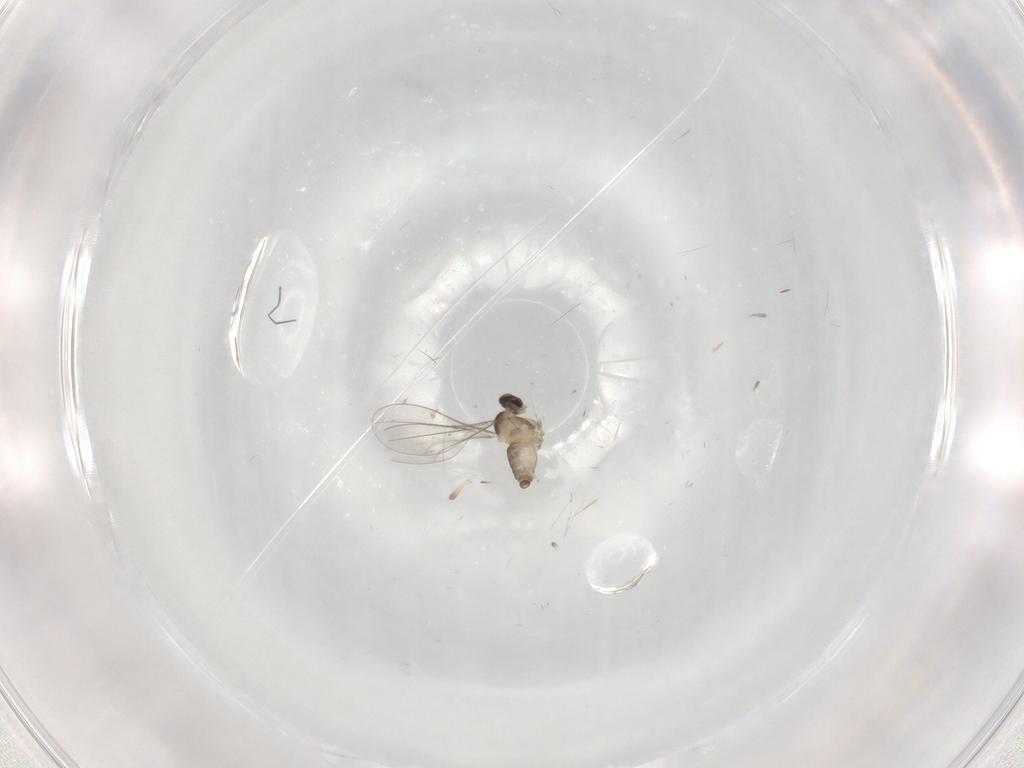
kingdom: Animalia
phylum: Arthropoda
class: Insecta
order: Diptera
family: Cecidomyiidae
